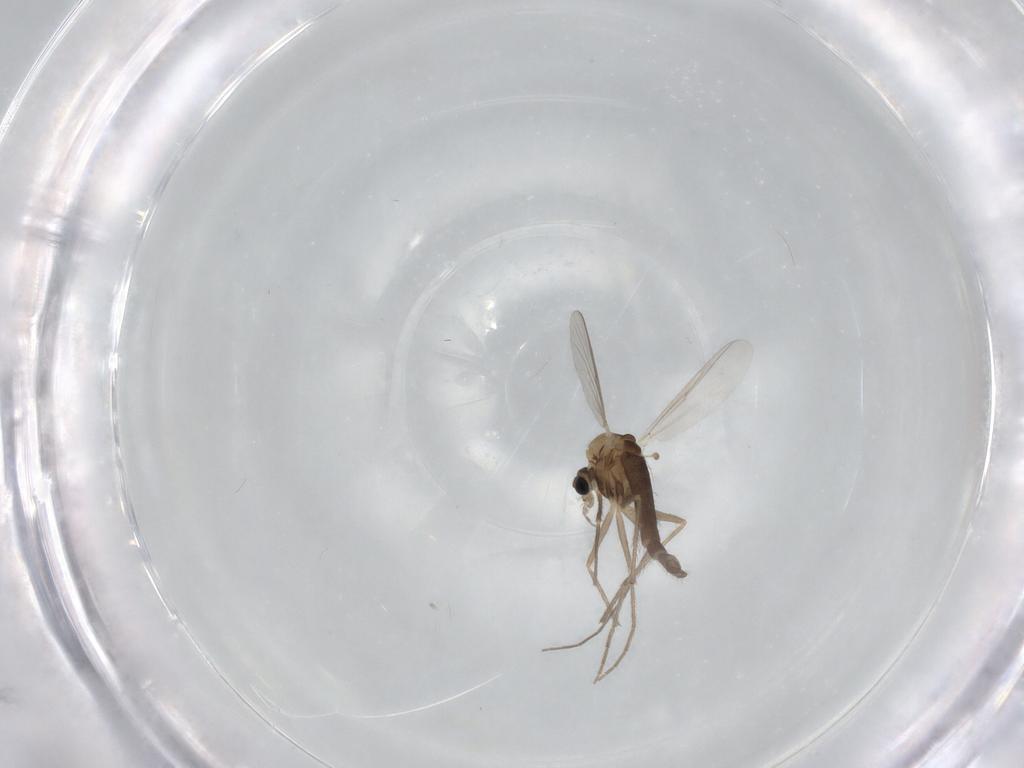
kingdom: Animalia
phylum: Arthropoda
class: Insecta
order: Diptera
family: Chironomidae
